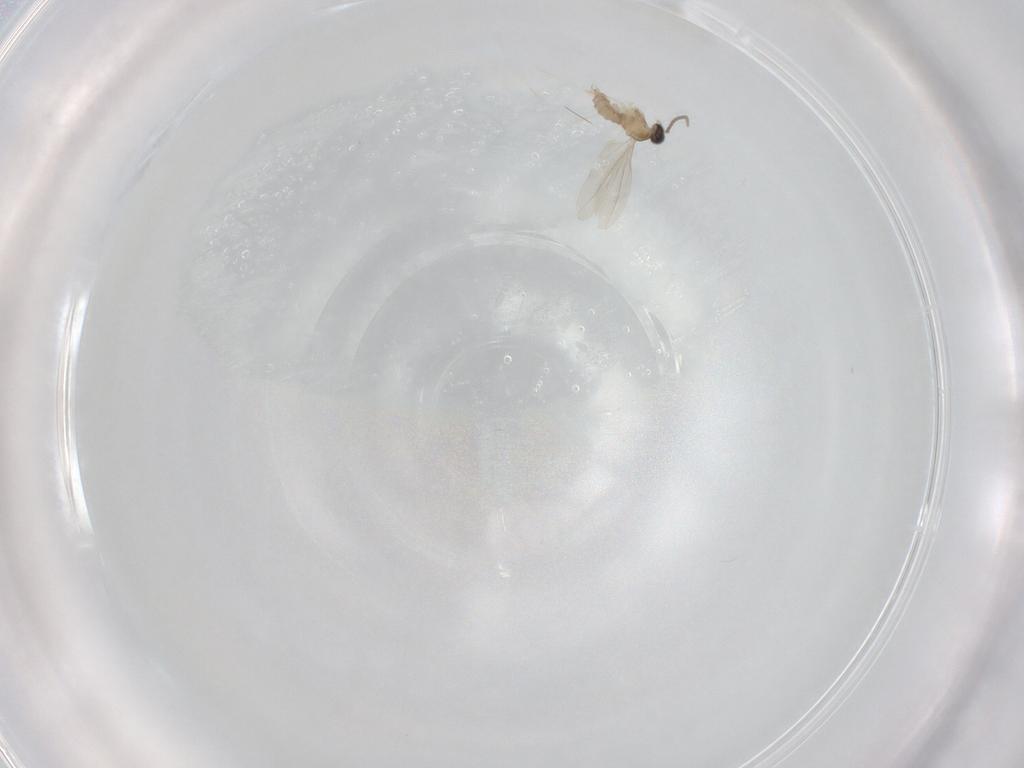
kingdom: Animalia
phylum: Arthropoda
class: Insecta
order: Diptera
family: Cecidomyiidae
